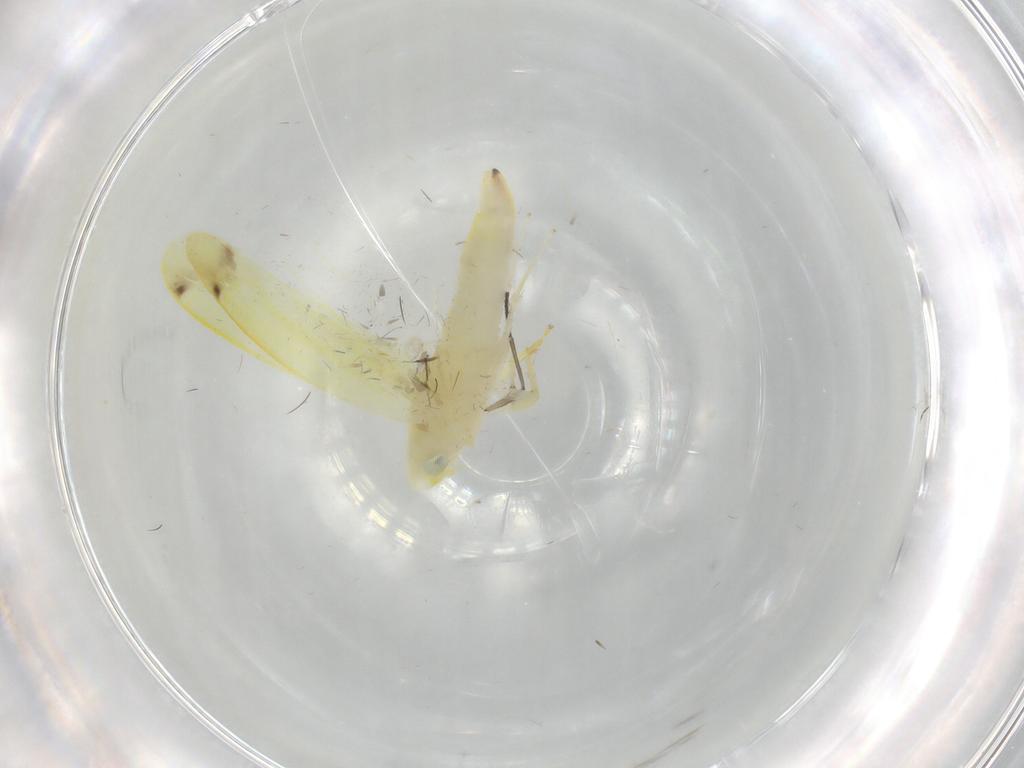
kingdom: Animalia
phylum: Arthropoda
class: Insecta
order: Hemiptera
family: Cicadellidae
